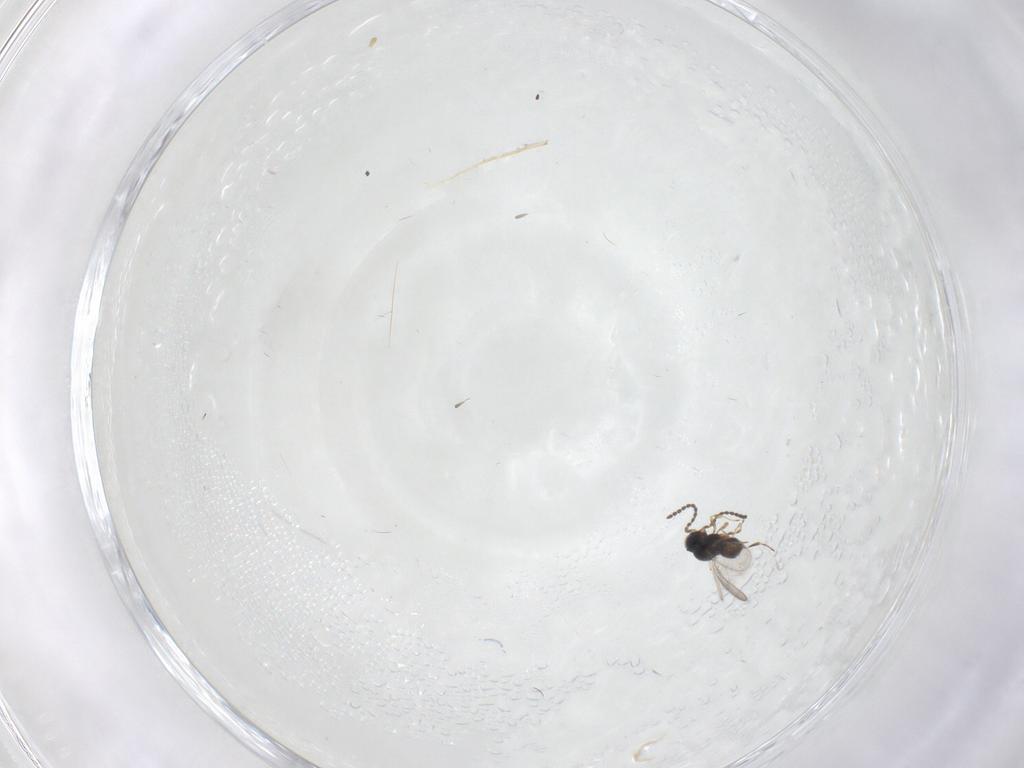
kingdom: Animalia
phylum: Arthropoda
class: Insecta
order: Hymenoptera
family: Scelionidae
